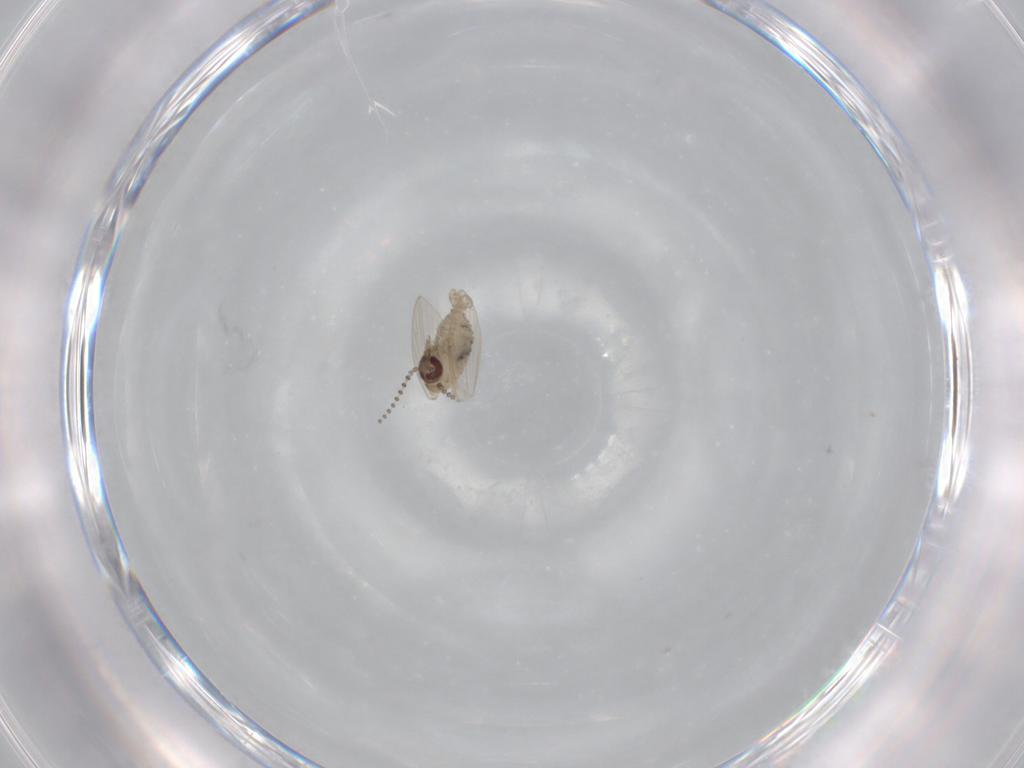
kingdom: Animalia
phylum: Arthropoda
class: Insecta
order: Diptera
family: Psychodidae
